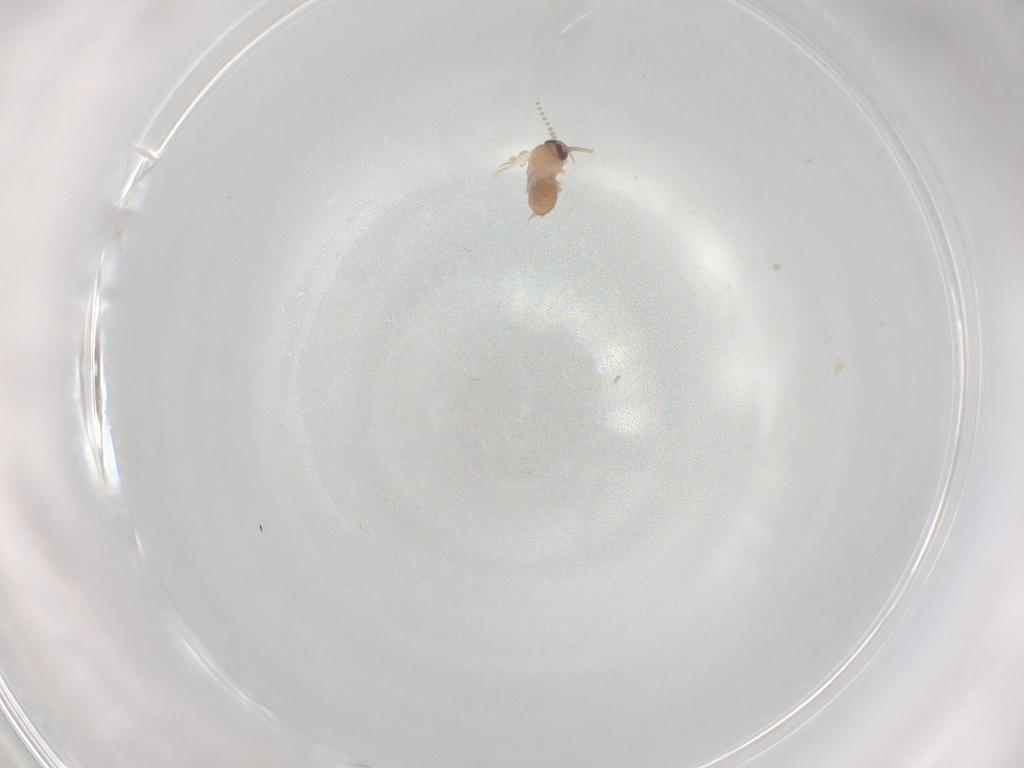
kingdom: Animalia
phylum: Arthropoda
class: Insecta
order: Diptera
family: Psychodidae
